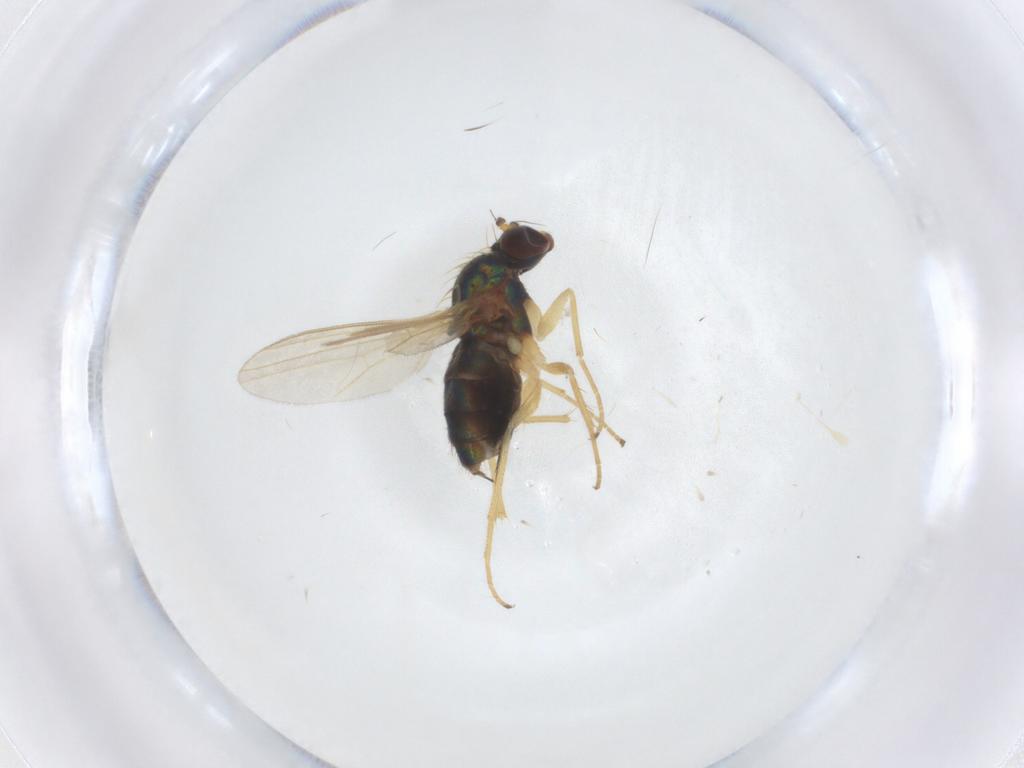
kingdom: Animalia
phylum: Arthropoda
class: Insecta
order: Diptera
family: Dolichopodidae
